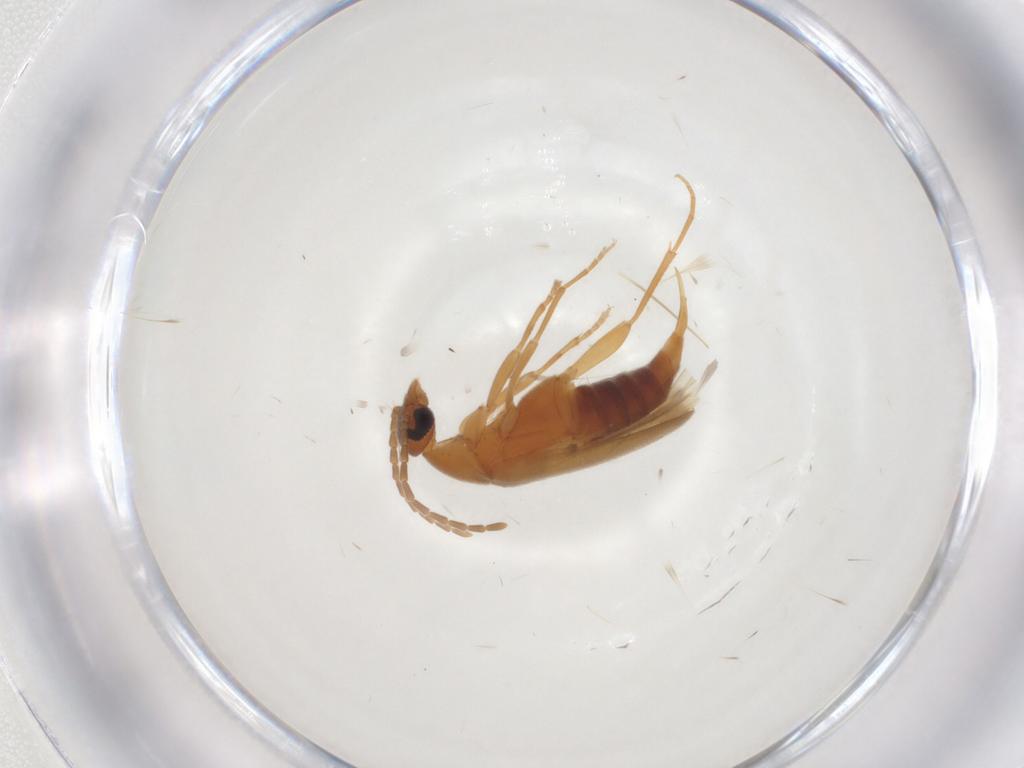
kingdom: Animalia
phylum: Arthropoda
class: Insecta
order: Coleoptera
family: Scraptiidae
